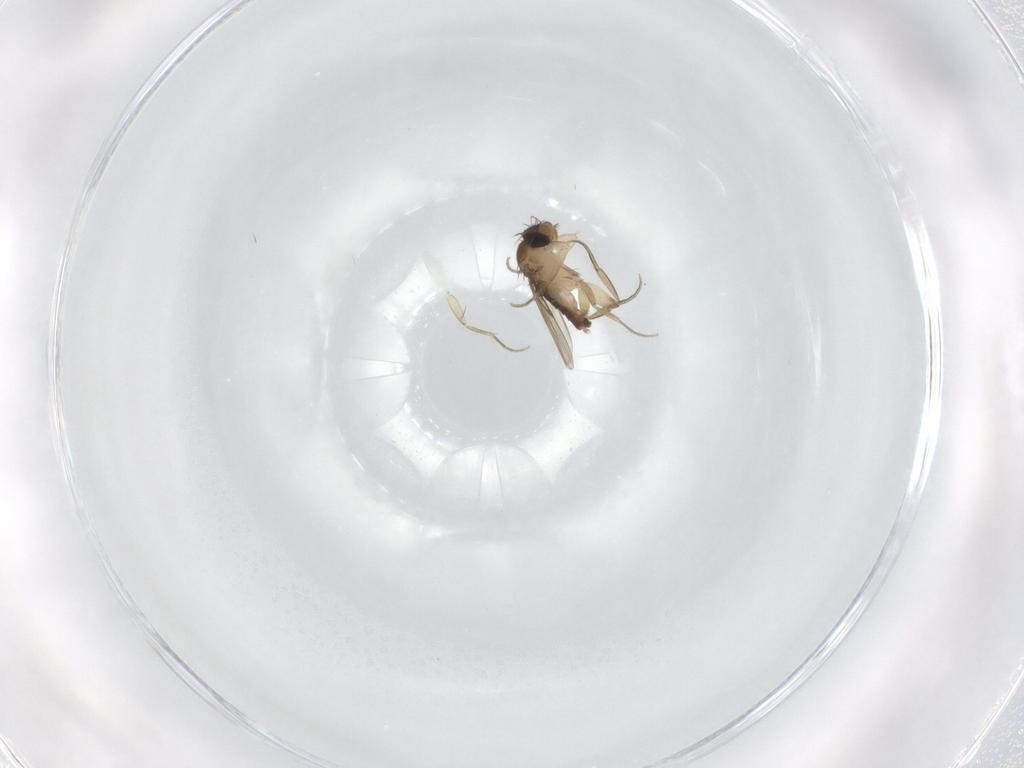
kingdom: Animalia
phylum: Arthropoda
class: Insecta
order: Diptera
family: Phoridae
